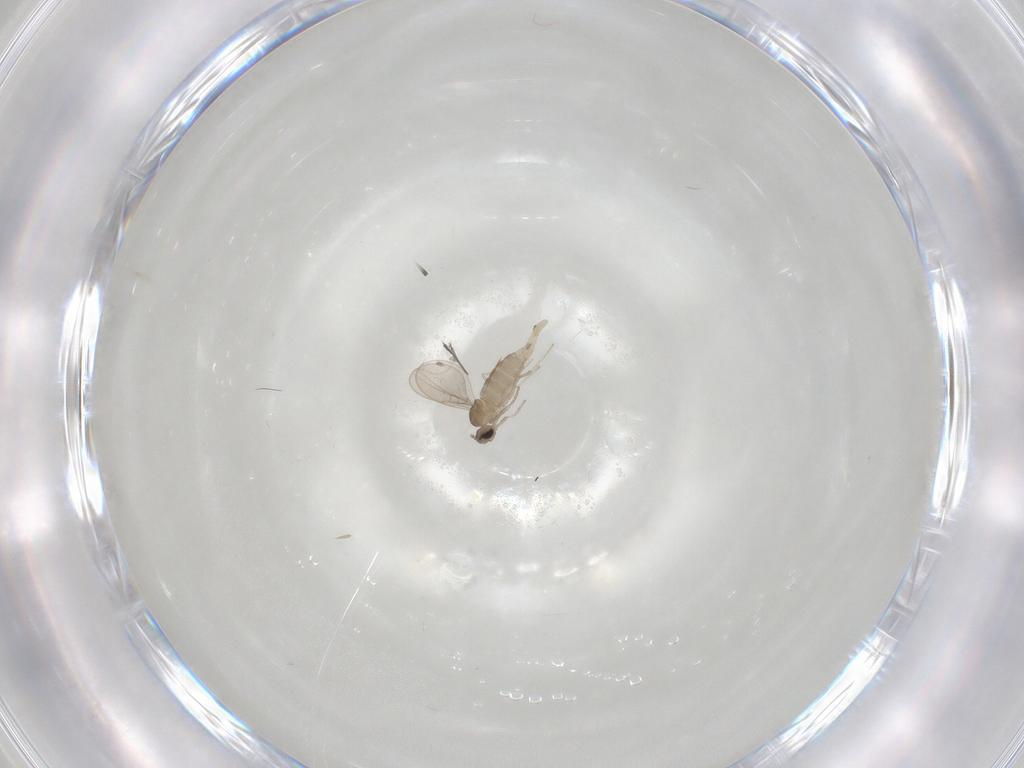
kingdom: Animalia
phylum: Arthropoda
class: Insecta
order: Diptera
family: Cecidomyiidae
